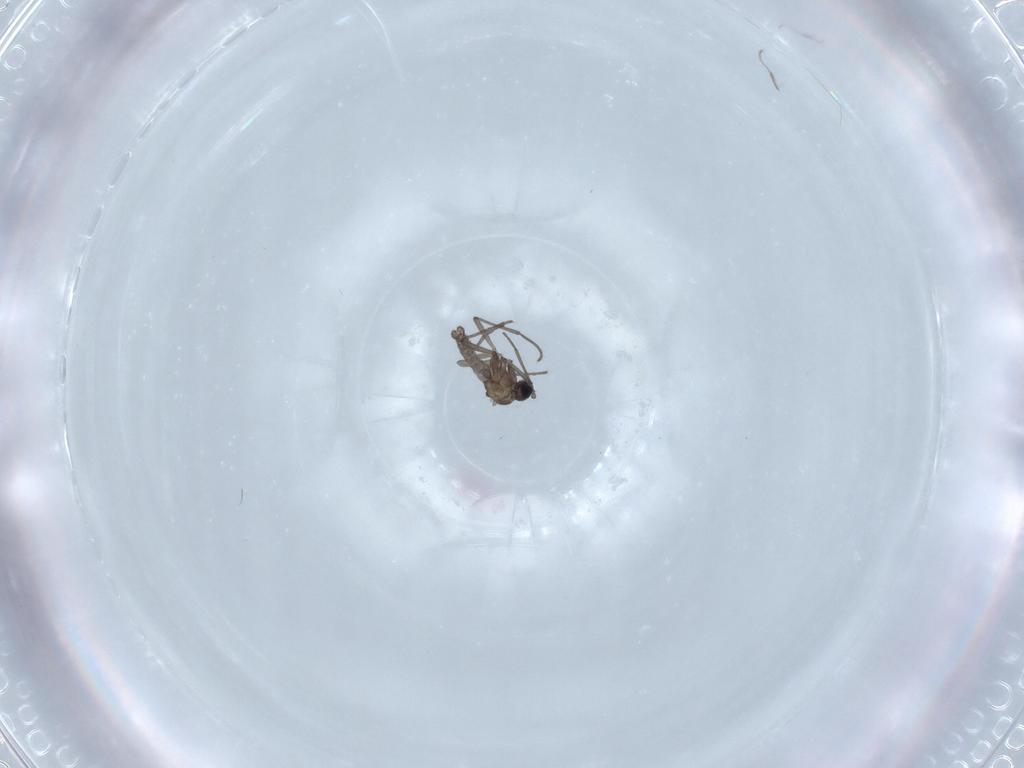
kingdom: Animalia
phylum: Arthropoda
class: Insecta
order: Diptera
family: Sciaridae
